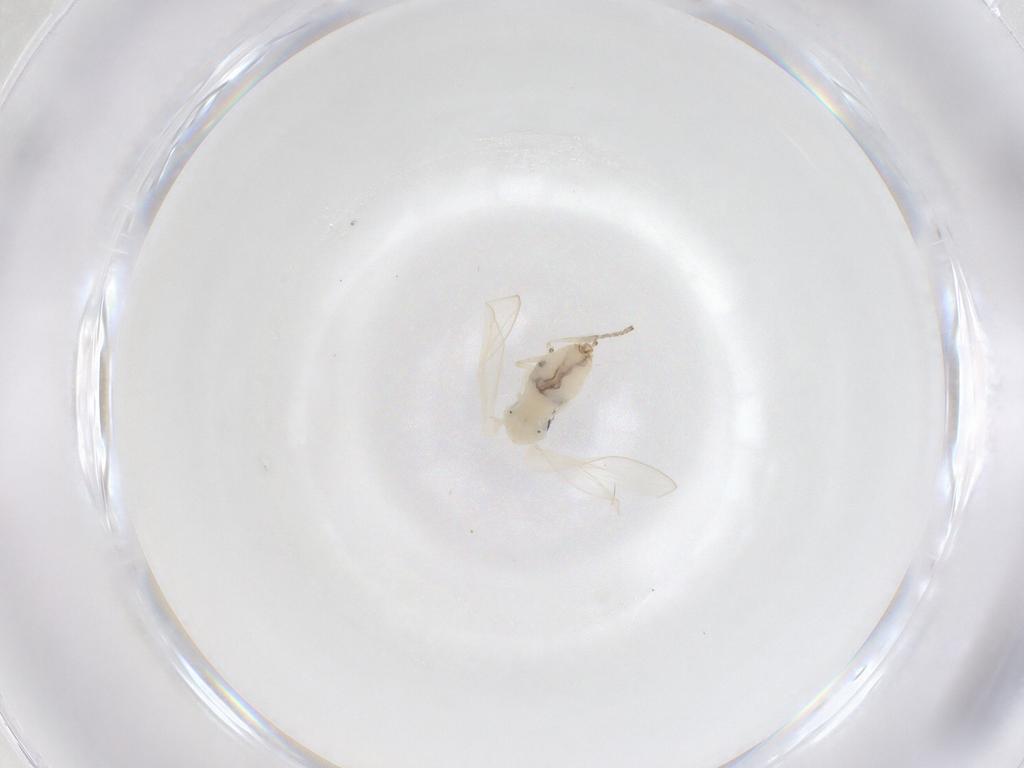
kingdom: Animalia
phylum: Arthropoda
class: Insecta
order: Diptera
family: Psychodidae
